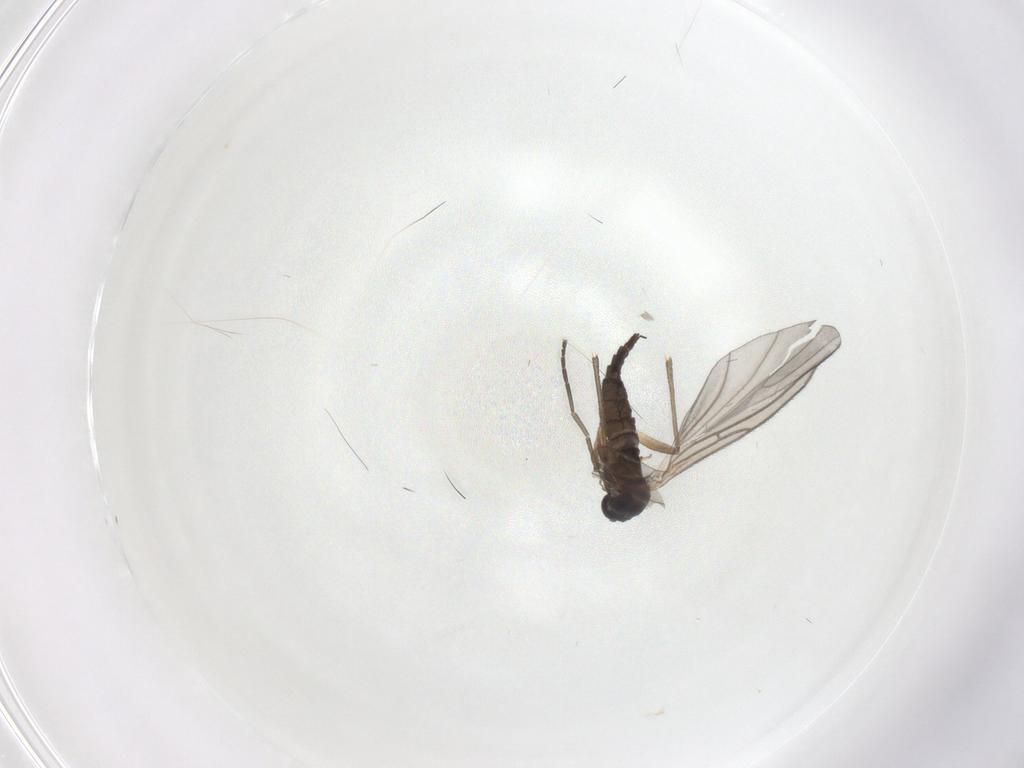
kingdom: Animalia
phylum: Arthropoda
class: Insecta
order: Diptera
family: Sciaridae
